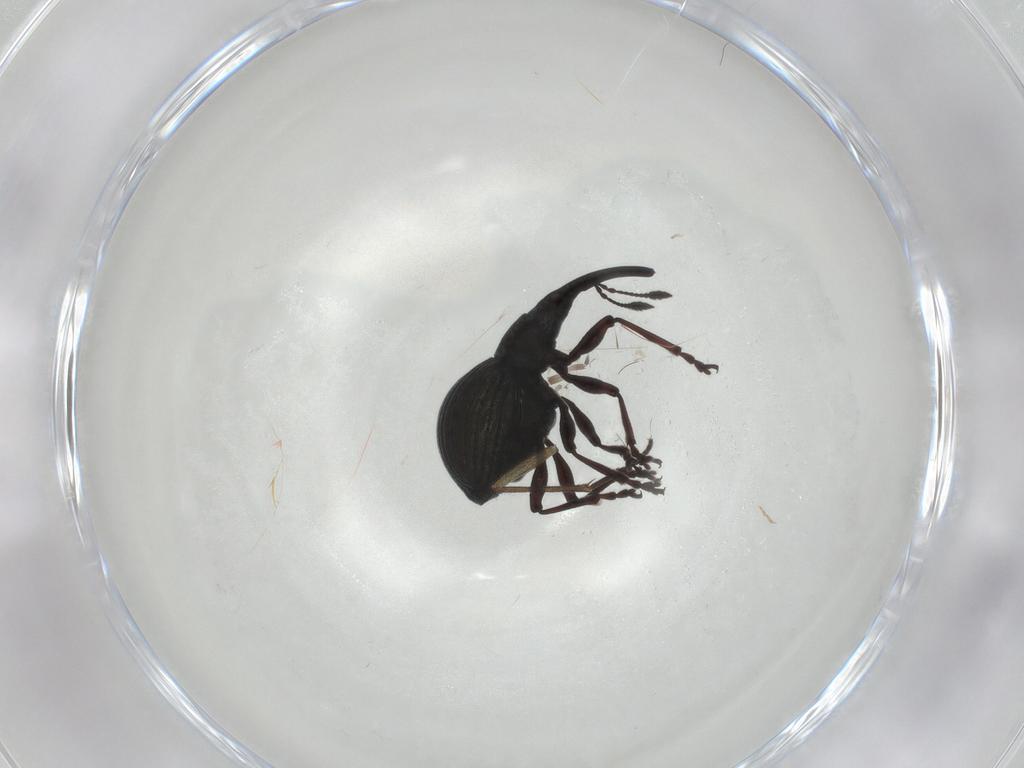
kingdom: Animalia
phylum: Arthropoda
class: Insecta
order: Coleoptera
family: Brentidae
